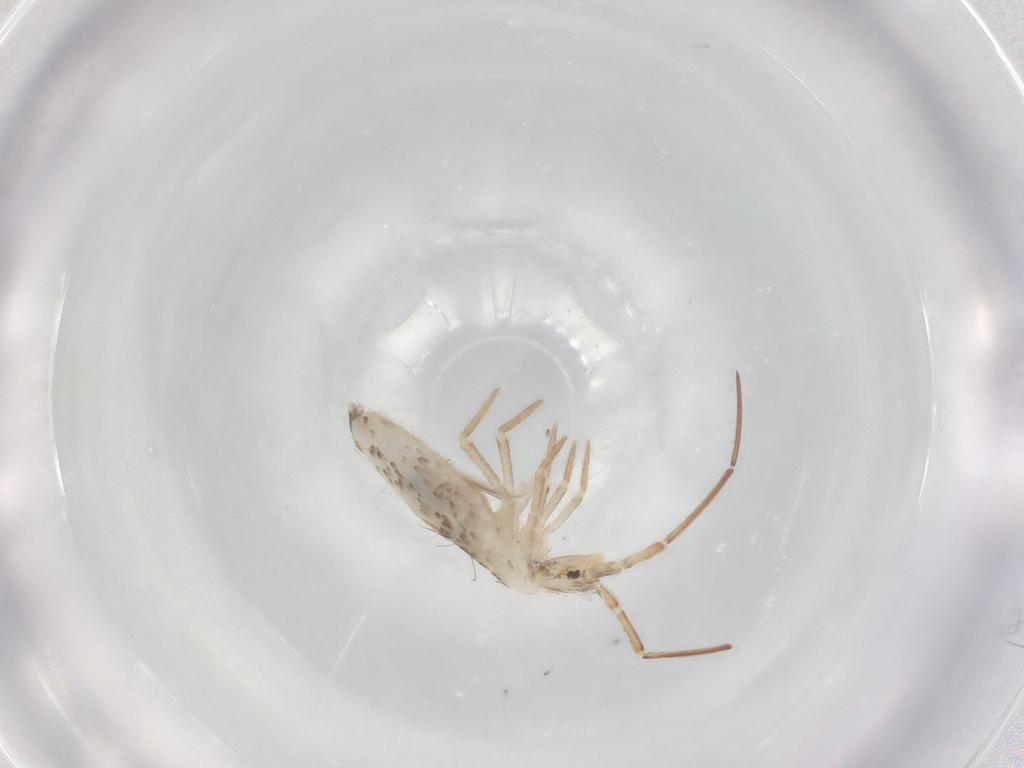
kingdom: Animalia
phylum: Arthropoda
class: Collembola
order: Entomobryomorpha
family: Entomobryidae
